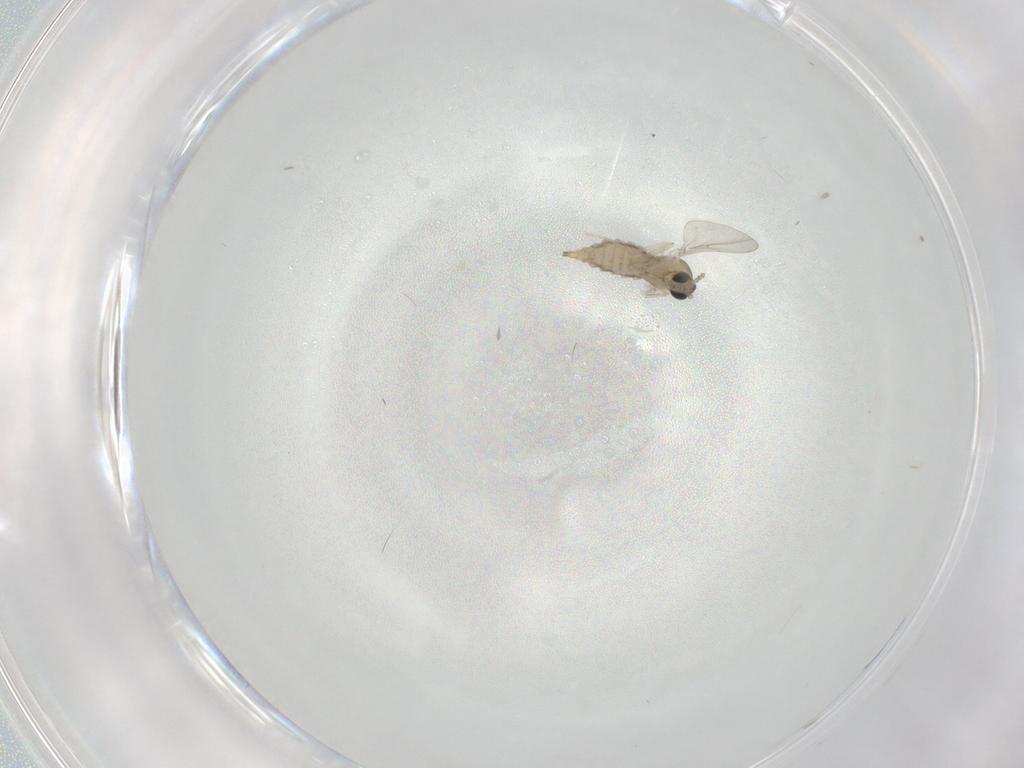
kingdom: Animalia
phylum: Arthropoda
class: Insecta
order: Diptera
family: Cecidomyiidae
